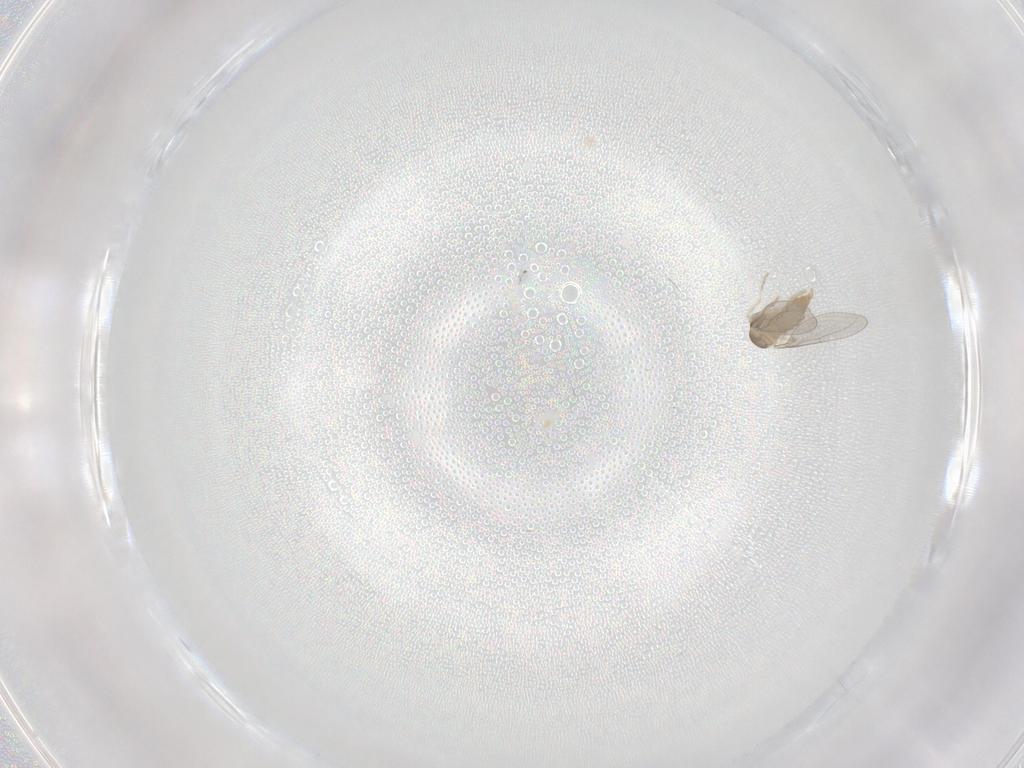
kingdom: Animalia
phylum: Arthropoda
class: Insecta
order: Diptera
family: Cecidomyiidae
